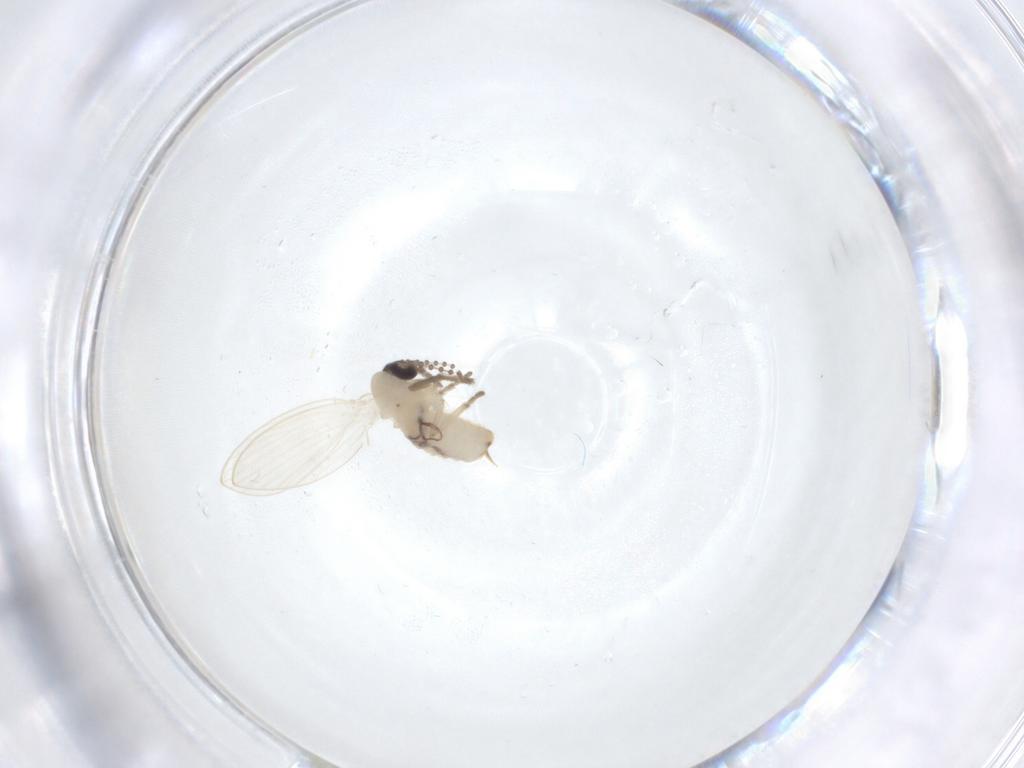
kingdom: Animalia
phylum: Arthropoda
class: Insecta
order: Diptera
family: Psychodidae
